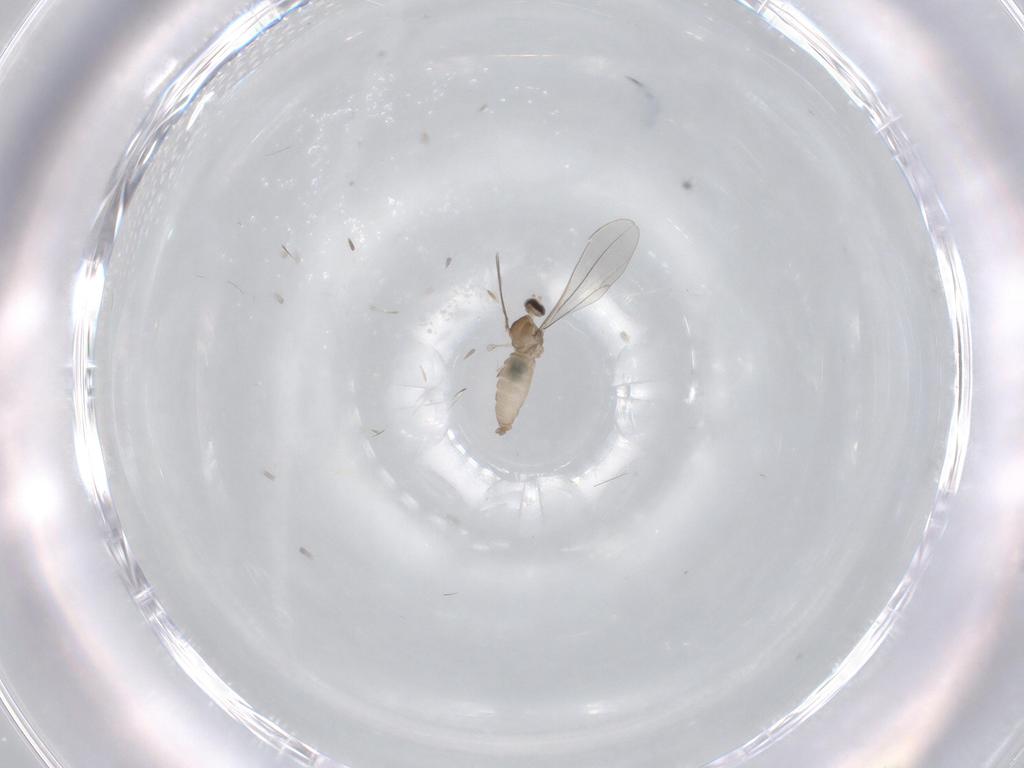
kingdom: Animalia
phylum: Arthropoda
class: Insecta
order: Diptera
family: Cecidomyiidae
